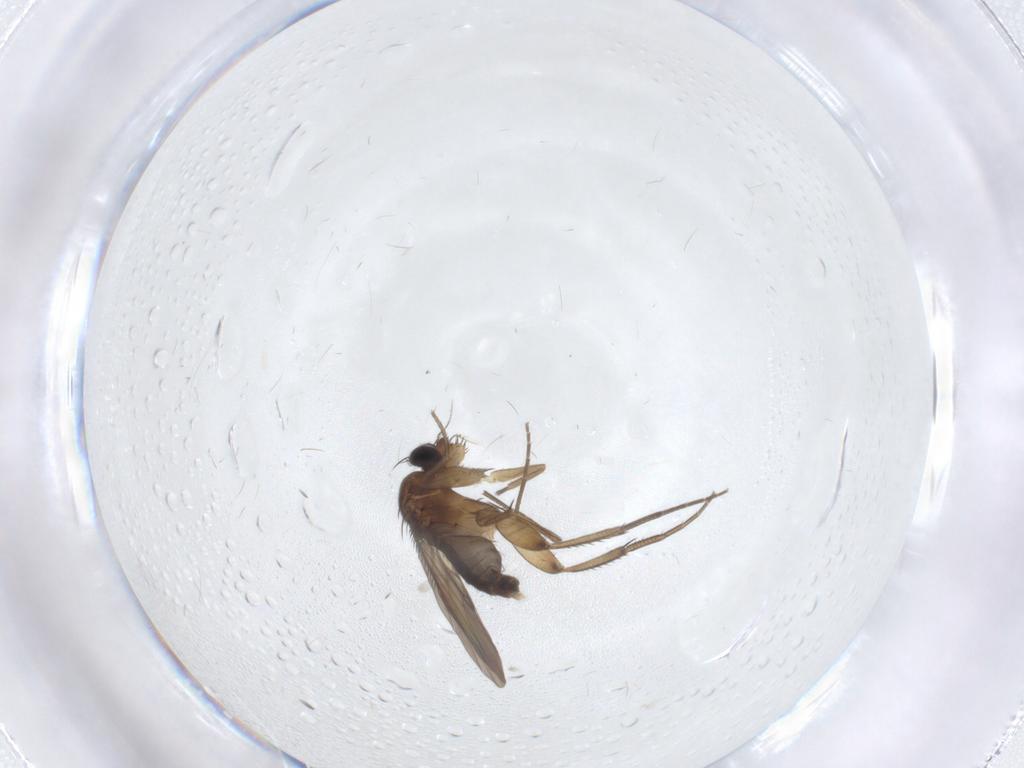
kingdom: Animalia
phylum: Arthropoda
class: Insecta
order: Diptera
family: Phoridae
